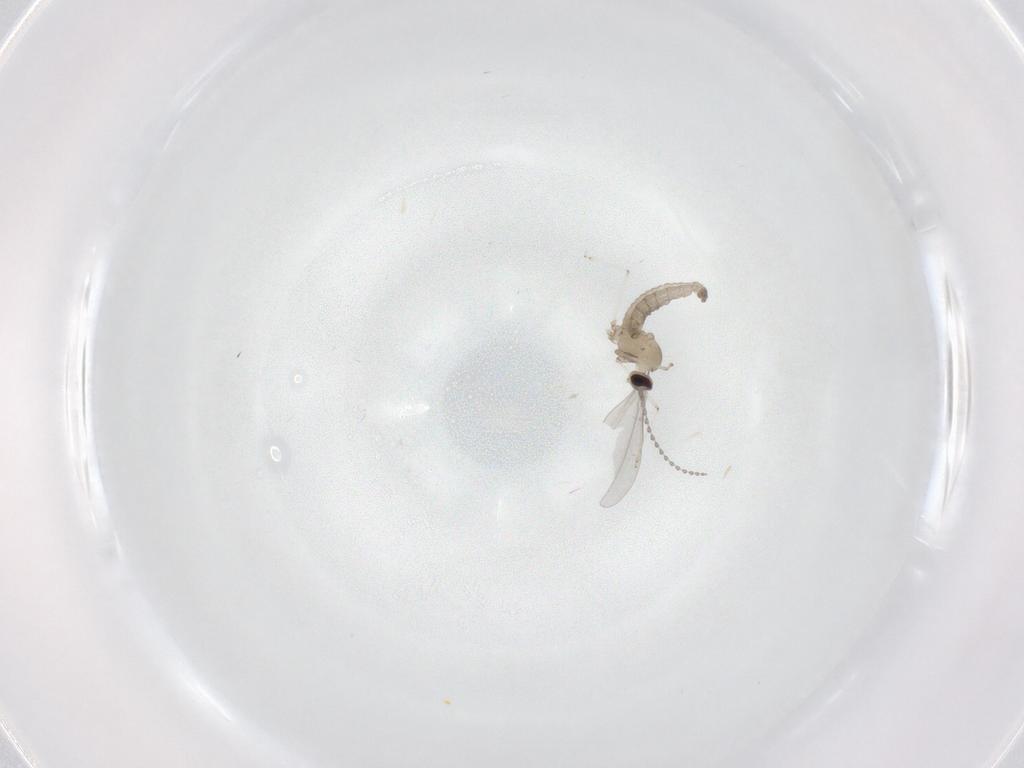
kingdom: Animalia
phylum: Arthropoda
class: Insecta
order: Diptera
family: Cecidomyiidae
